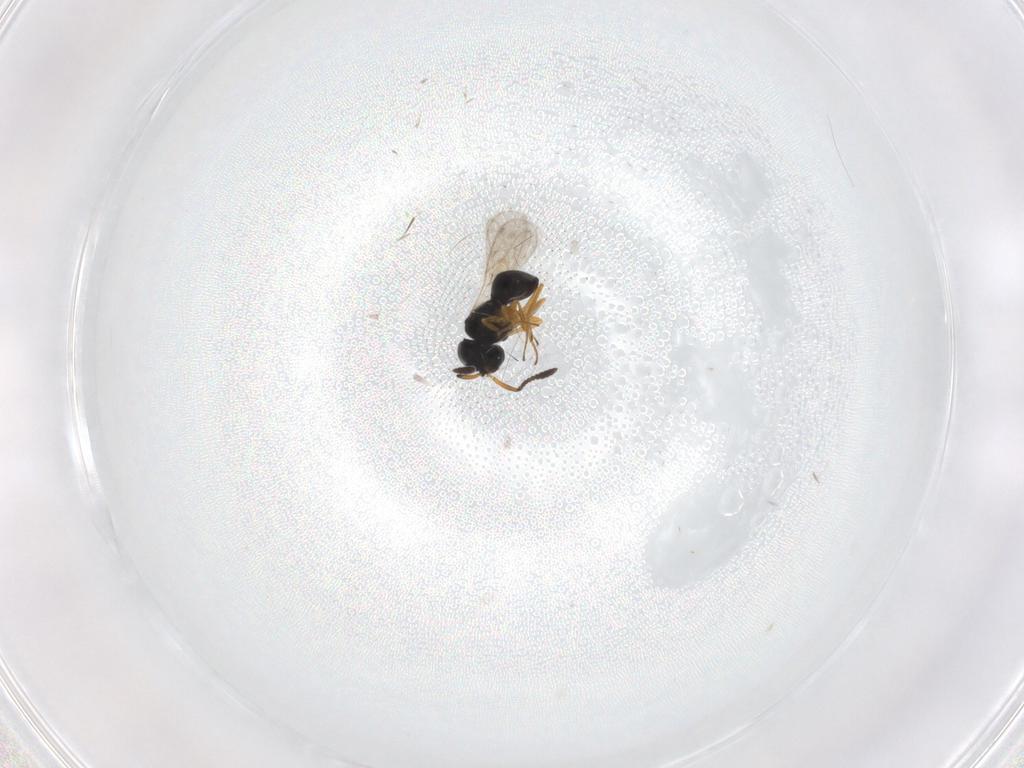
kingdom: Animalia
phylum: Arthropoda
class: Insecta
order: Hymenoptera
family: Scelionidae
